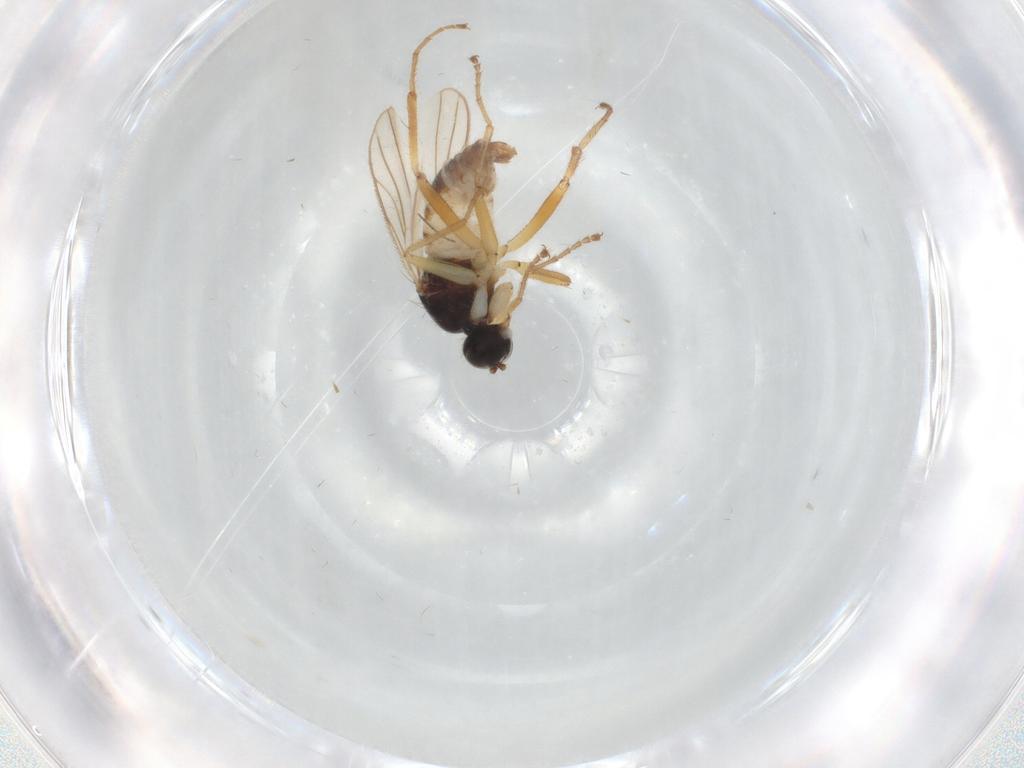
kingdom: Animalia
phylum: Arthropoda
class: Insecta
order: Diptera
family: Hybotidae
